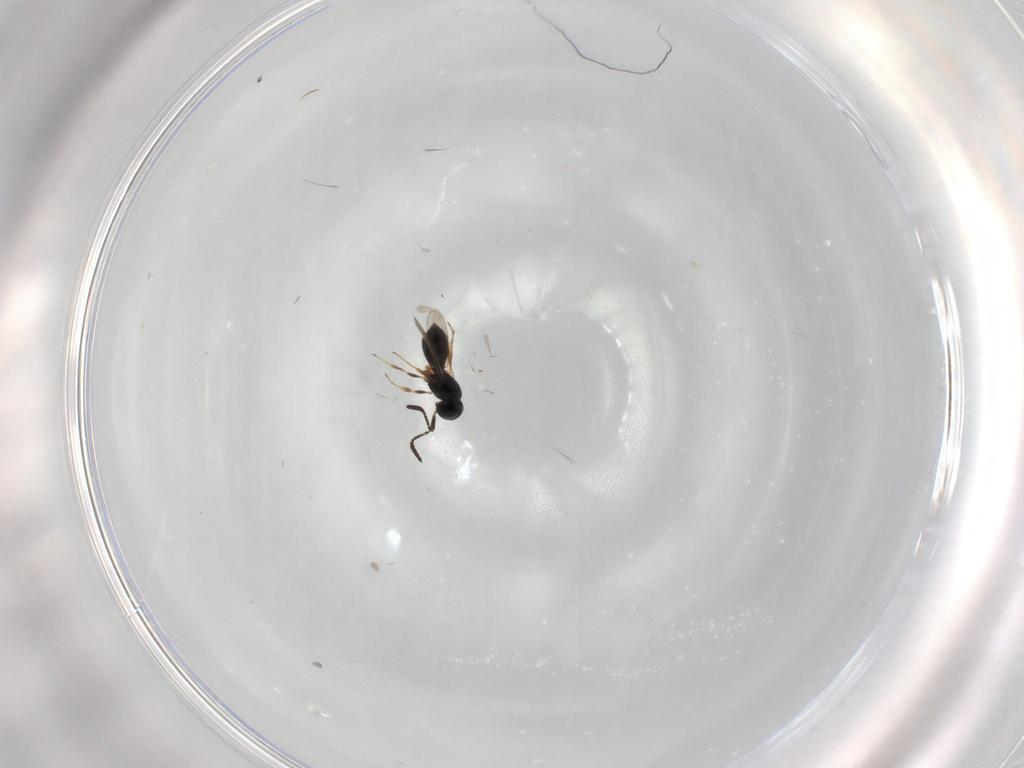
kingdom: Animalia
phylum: Arthropoda
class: Insecta
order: Hymenoptera
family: Scelionidae
